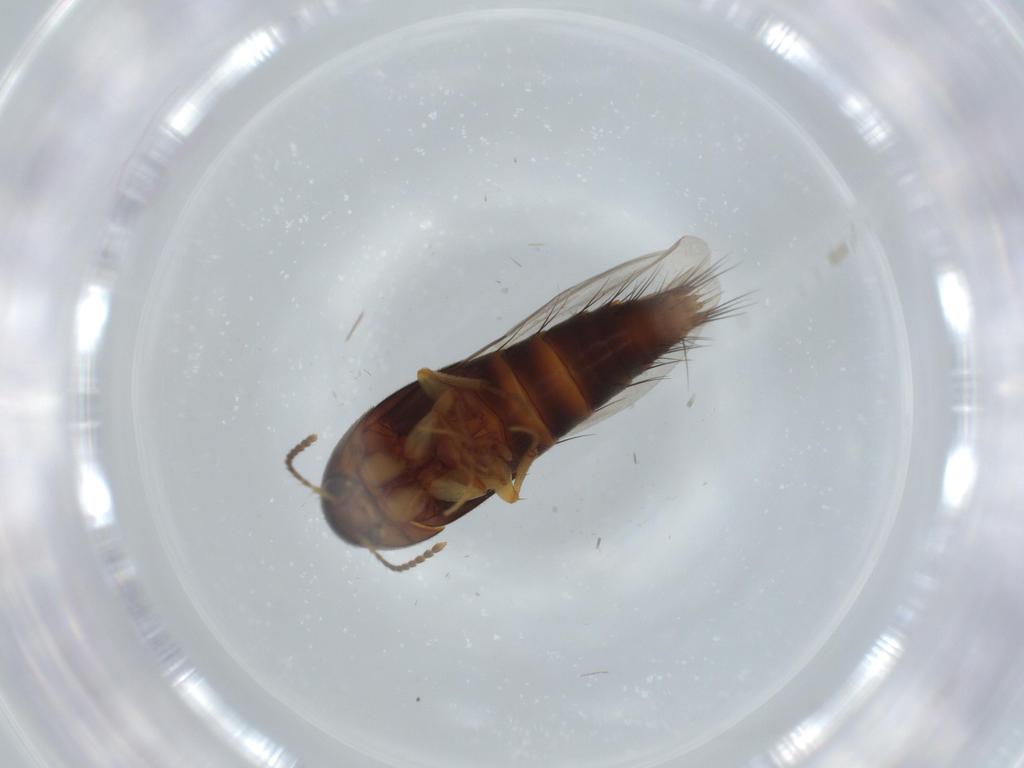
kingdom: Animalia
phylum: Arthropoda
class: Insecta
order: Coleoptera
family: Staphylinidae
